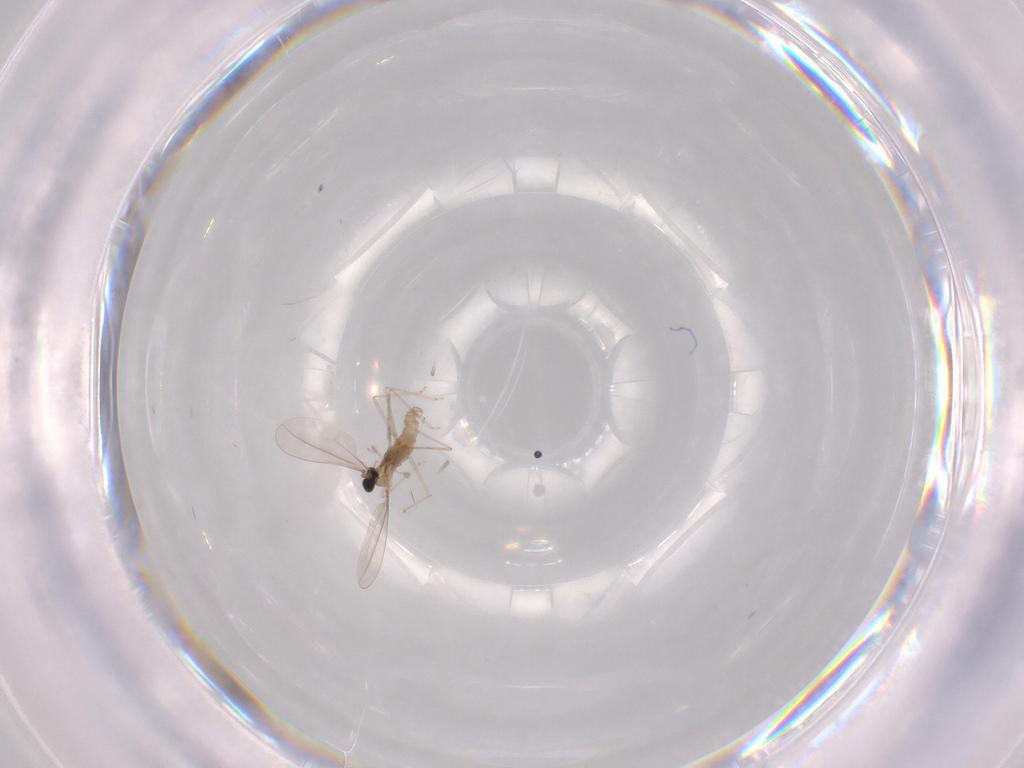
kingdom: Animalia
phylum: Arthropoda
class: Insecta
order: Diptera
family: Cecidomyiidae
